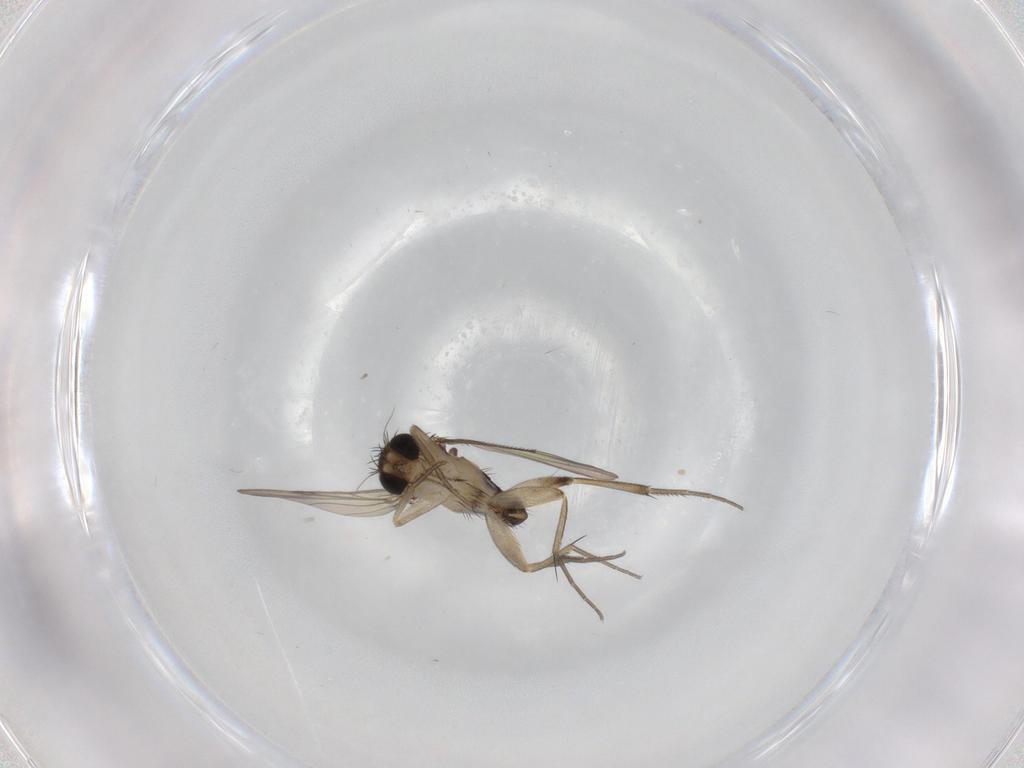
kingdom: Animalia
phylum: Arthropoda
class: Insecta
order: Diptera
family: Phoridae
